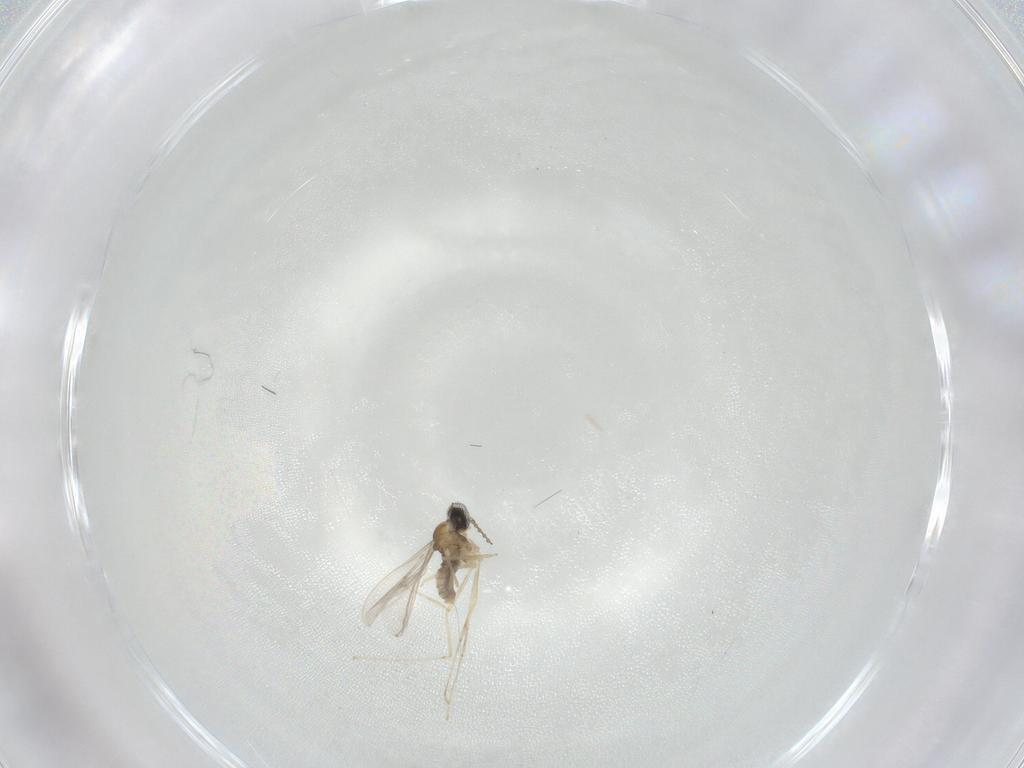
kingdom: Animalia
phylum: Arthropoda
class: Insecta
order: Diptera
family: Cecidomyiidae
